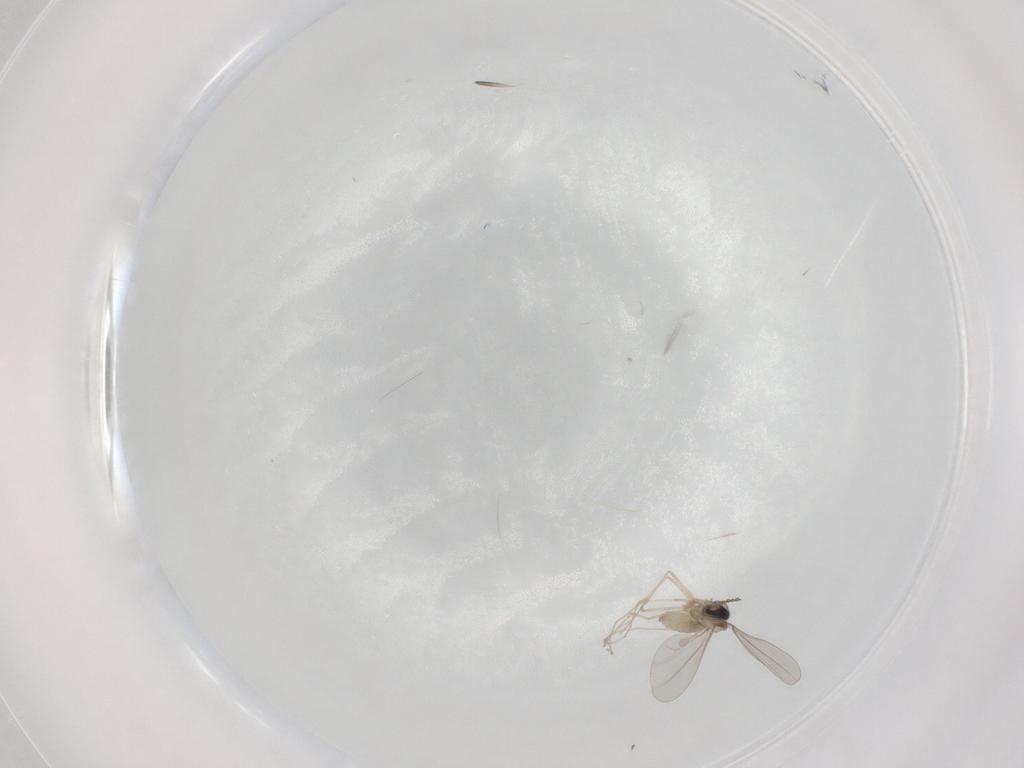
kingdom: Animalia
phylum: Arthropoda
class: Insecta
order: Diptera
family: Cecidomyiidae
